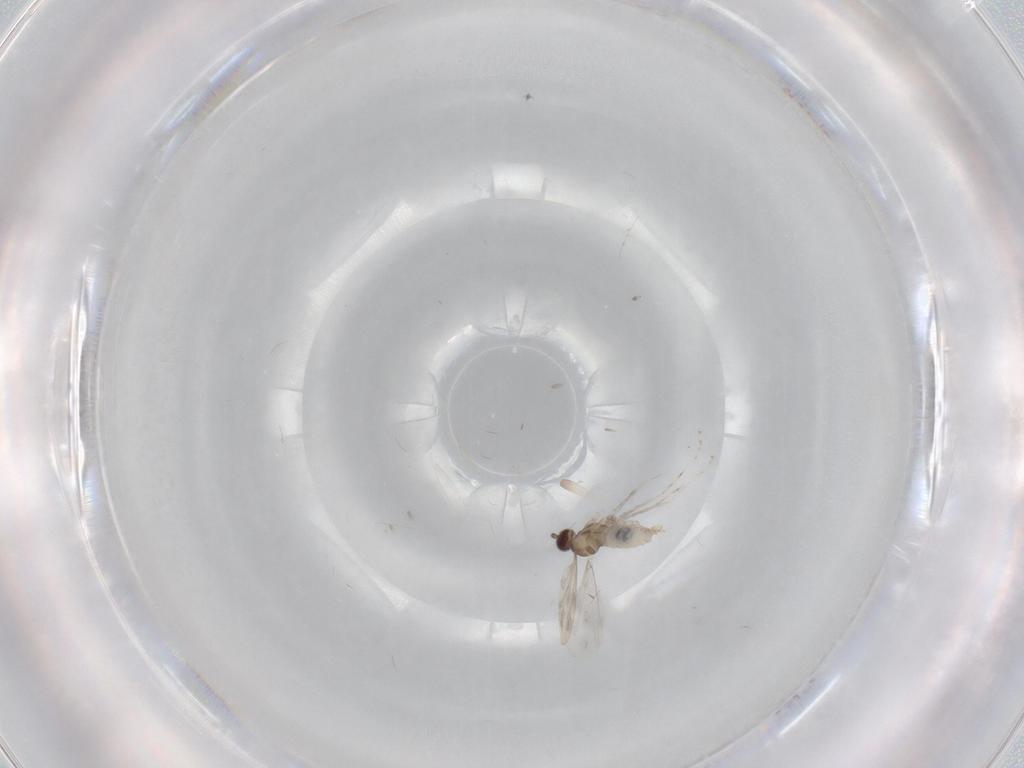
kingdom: Animalia
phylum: Arthropoda
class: Insecta
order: Diptera
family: Cecidomyiidae
